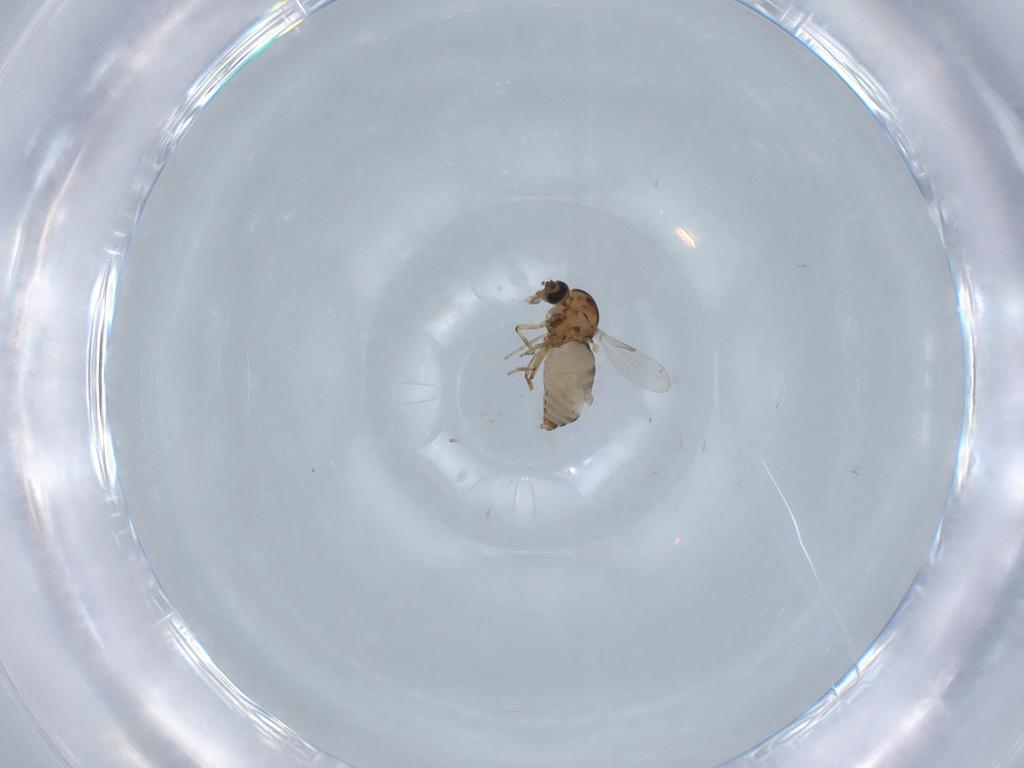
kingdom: Animalia
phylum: Arthropoda
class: Insecta
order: Diptera
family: Ceratopogonidae
